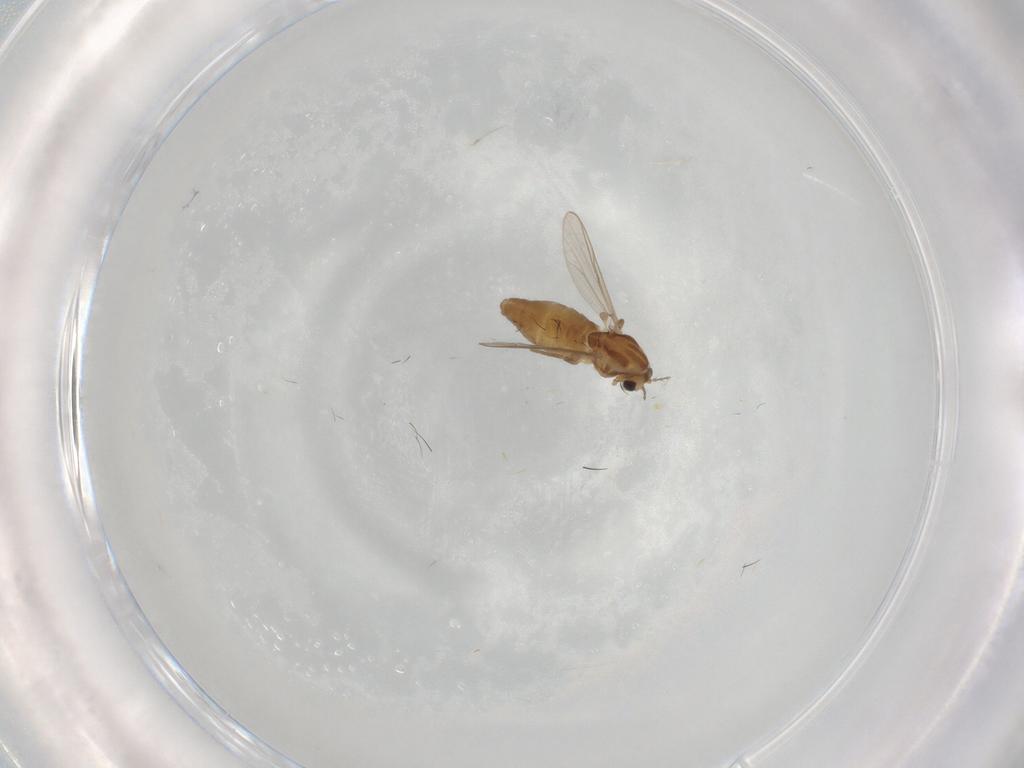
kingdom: Animalia
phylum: Arthropoda
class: Insecta
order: Diptera
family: Chironomidae
